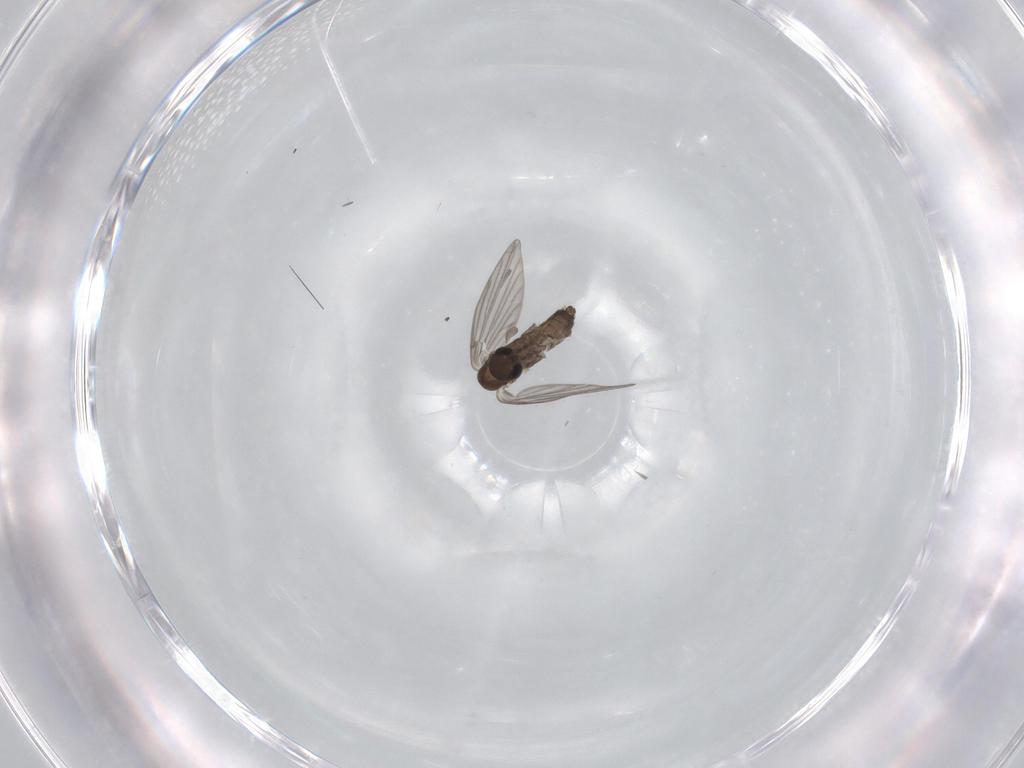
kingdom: Animalia
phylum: Arthropoda
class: Insecta
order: Diptera
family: Psychodidae
